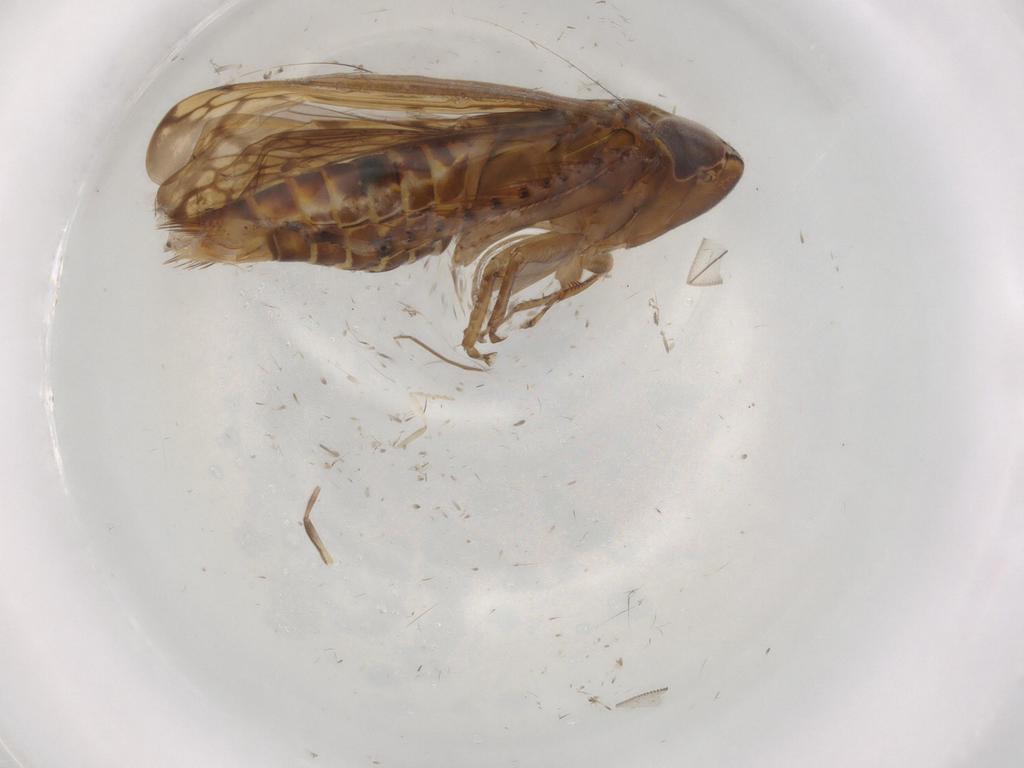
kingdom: Animalia
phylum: Arthropoda
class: Insecta
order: Hemiptera
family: Cicadellidae
